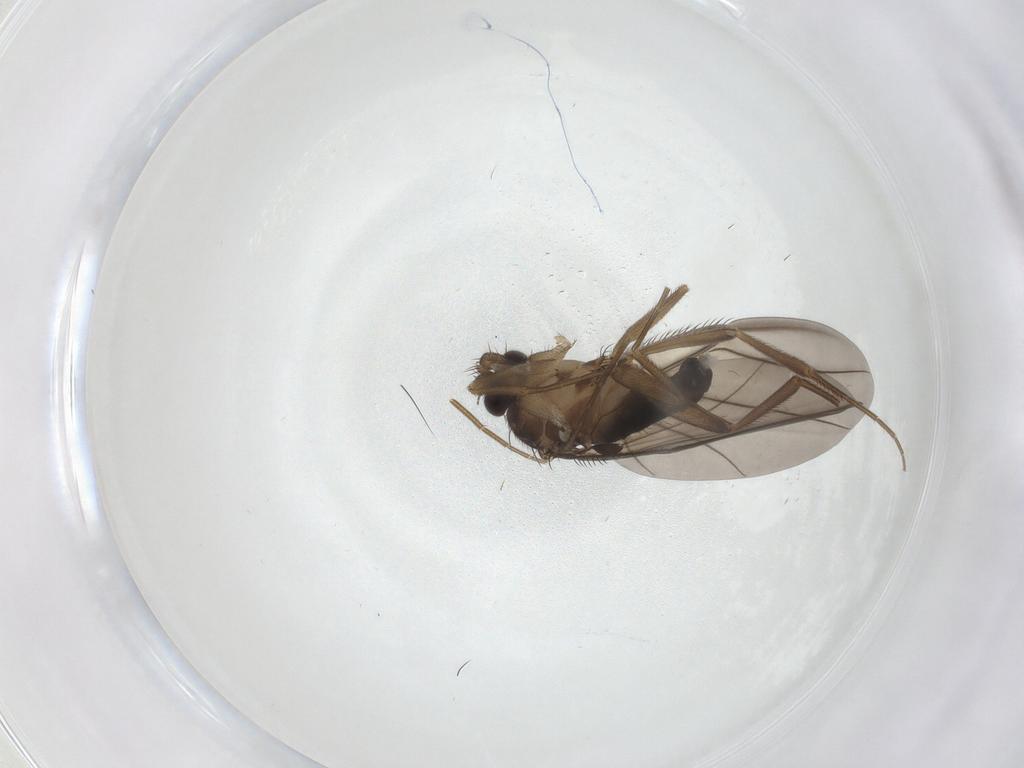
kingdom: Animalia
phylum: Arthropoda
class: Insecta
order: Diptera
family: Phoridae
